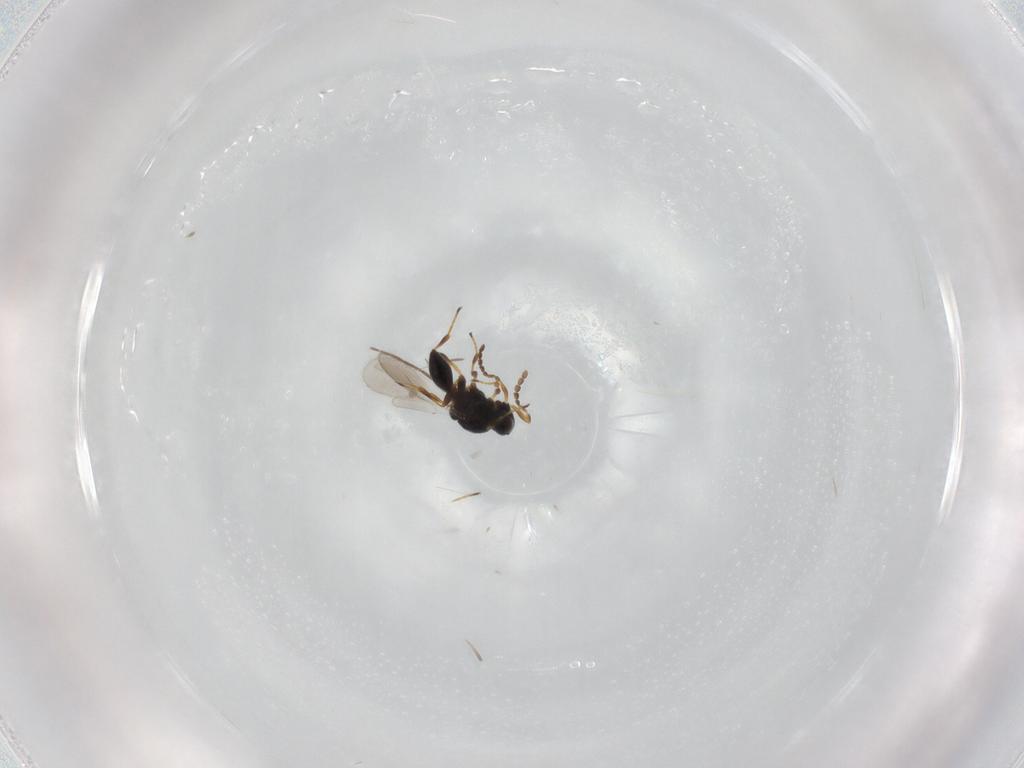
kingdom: Animalia
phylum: Arthropoda
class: Insecta
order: Hymenoptera
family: Platygastridae
